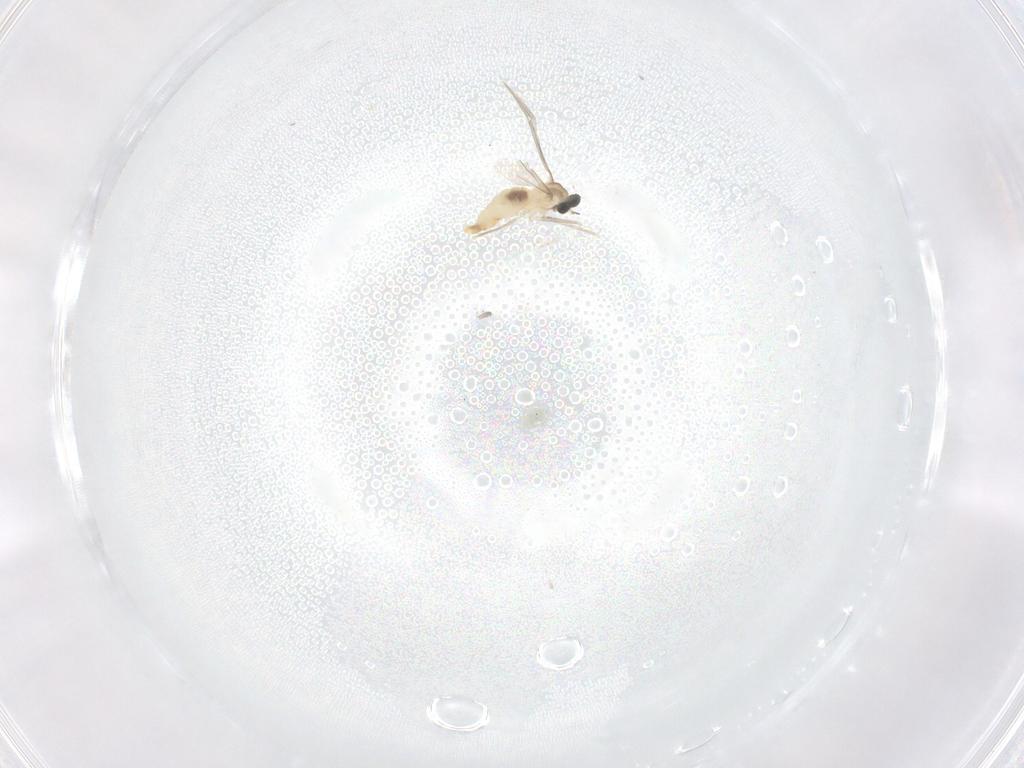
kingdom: Animalia
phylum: Arthropoda
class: Insecta
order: Diptera
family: Cecidomyiidae
